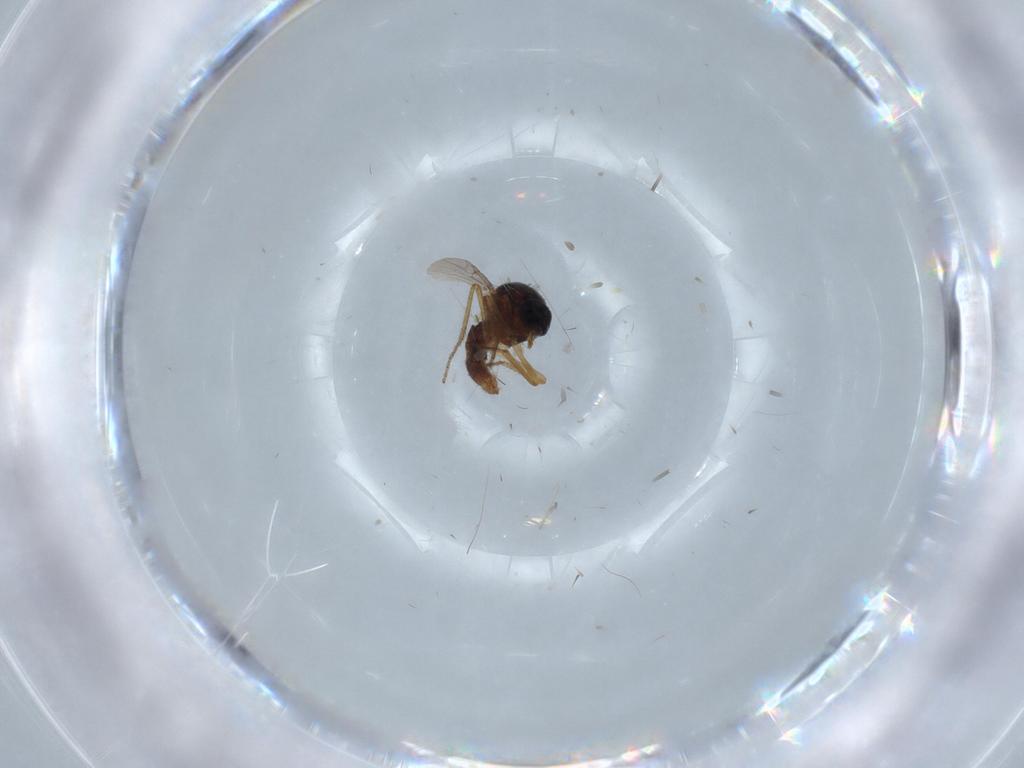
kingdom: Animalia
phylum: Arthropoda
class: Insecta
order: Diptera
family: Ceratopogonidae
